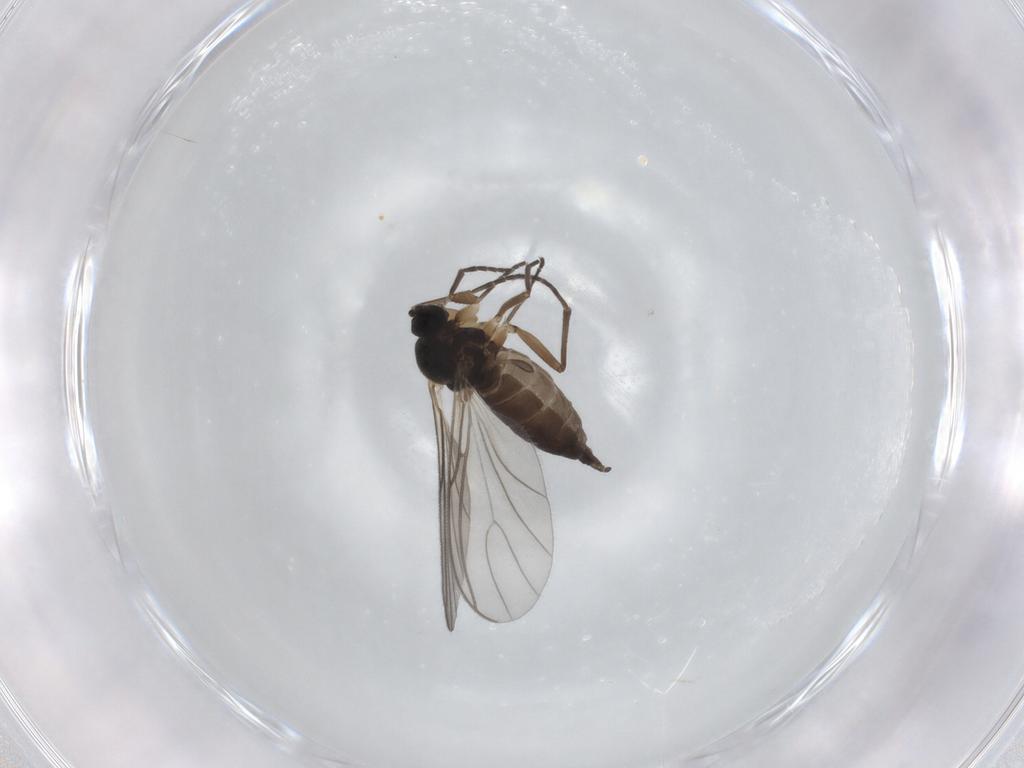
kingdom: Animalia
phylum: Arthropoda
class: Insecta
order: Diptera
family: Sciaridae
